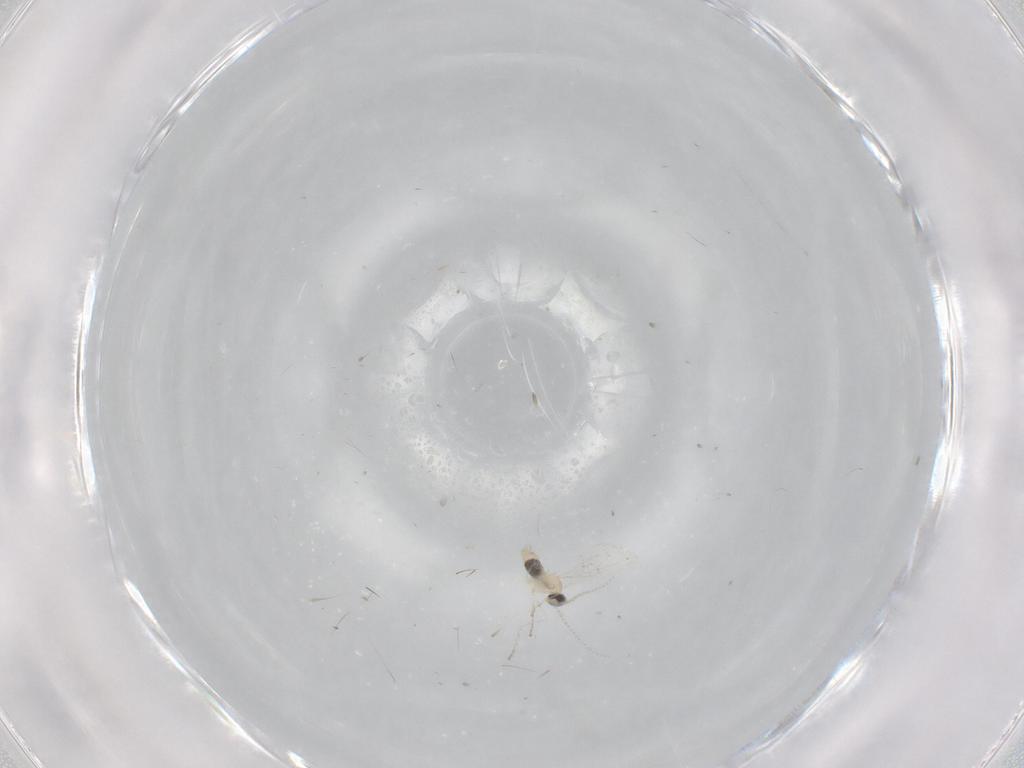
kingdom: Animalia
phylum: Arthropoda
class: Insecta
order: Diptera
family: Cecidomyiidae
